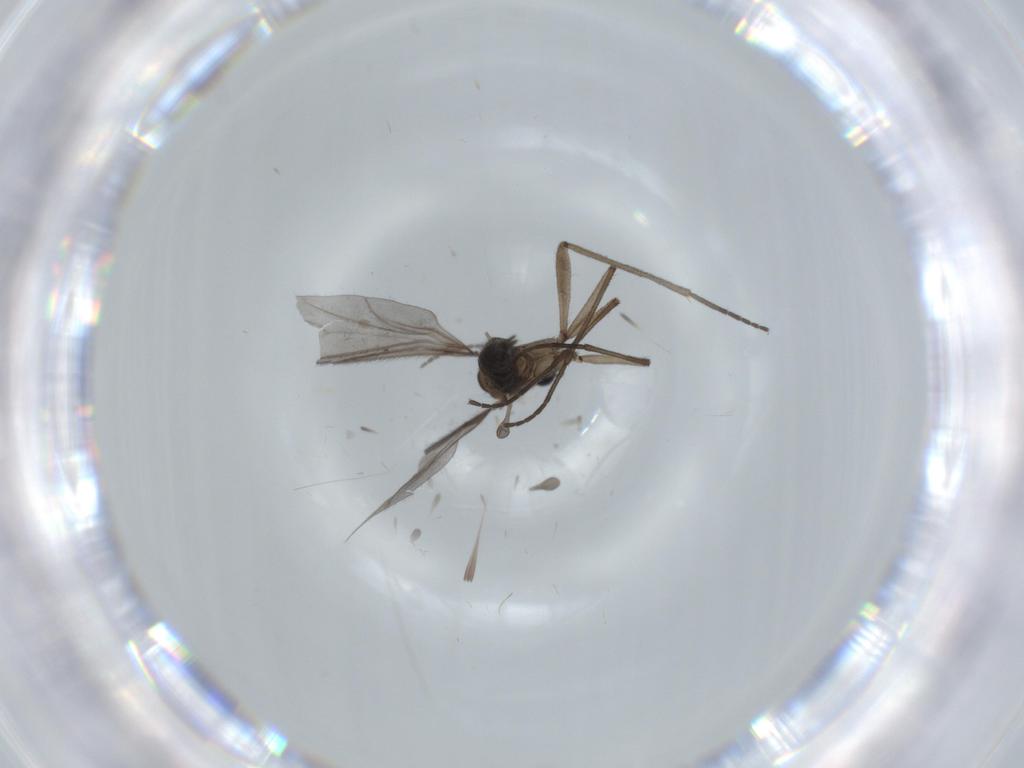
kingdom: Animalia
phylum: Arthropoda
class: Insecta
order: Diptera
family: Sciaridae
